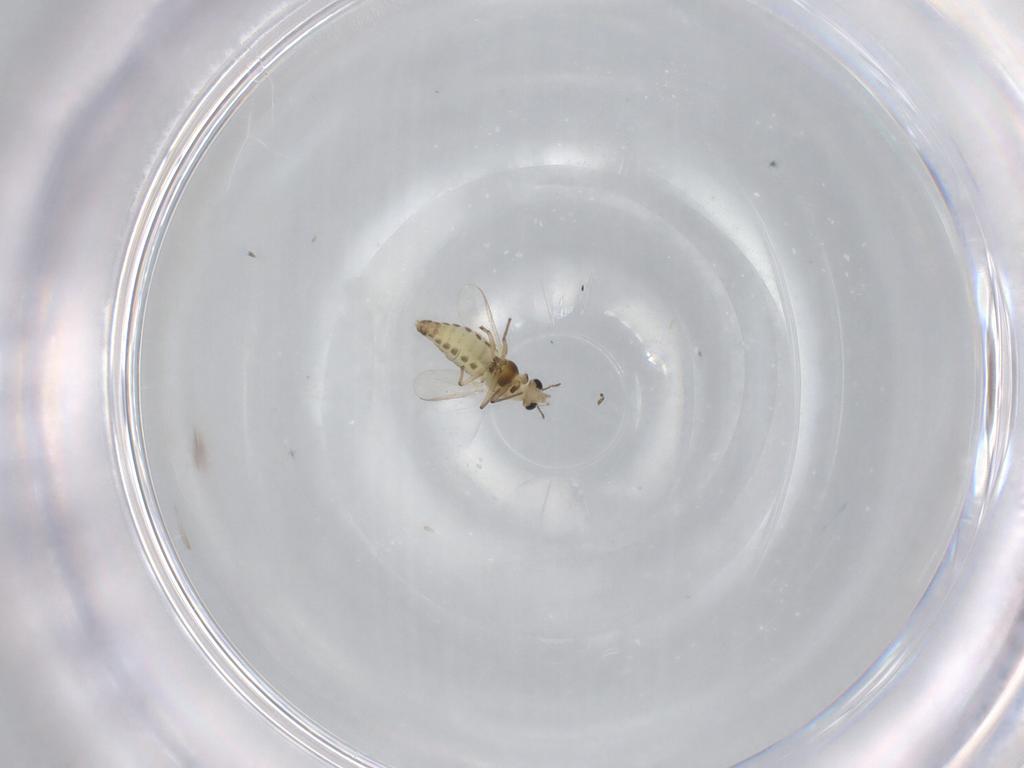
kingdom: Animalia
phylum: Arthropoda
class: Insecta
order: Diptera
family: Chironomidae
